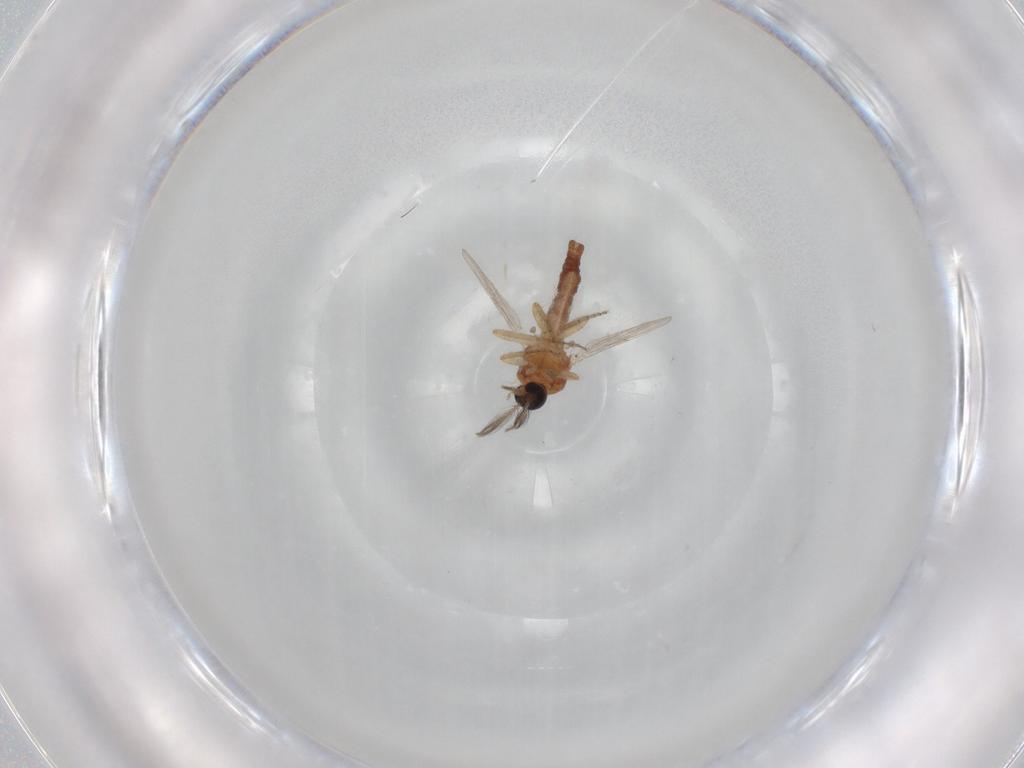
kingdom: Animalia
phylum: Arthropoda
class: Insecta
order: Diptera
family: Ceratopogonidae
